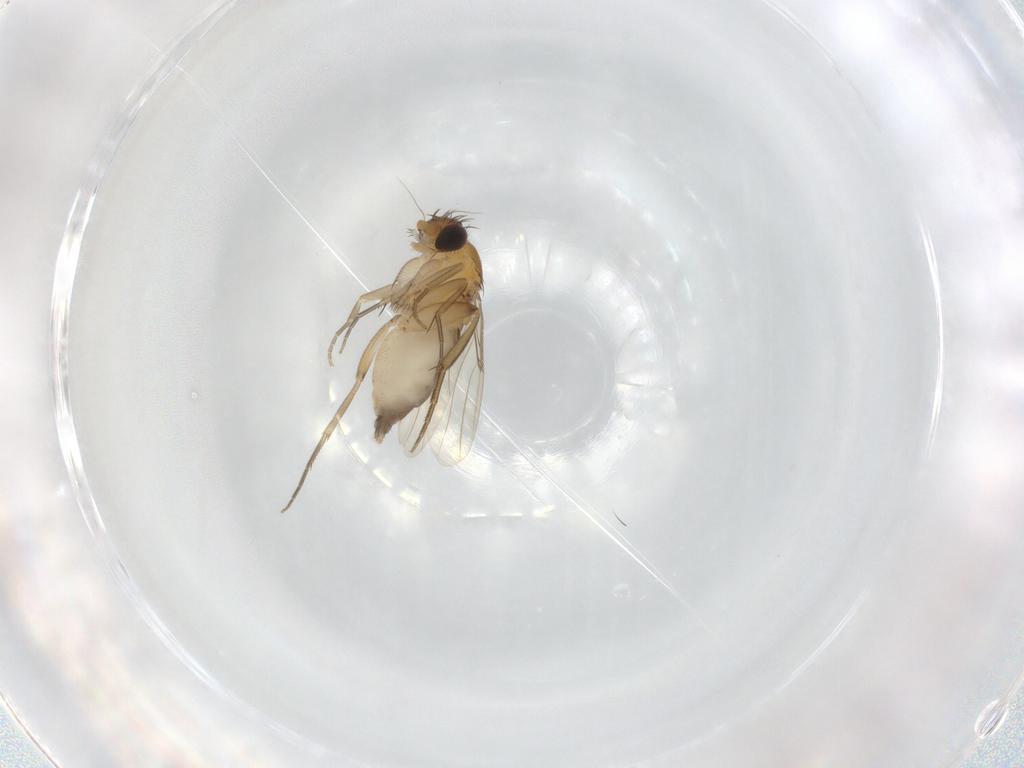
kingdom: Animalia
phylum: Arthropoda
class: Insecta
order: Diptera
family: Phoridae
